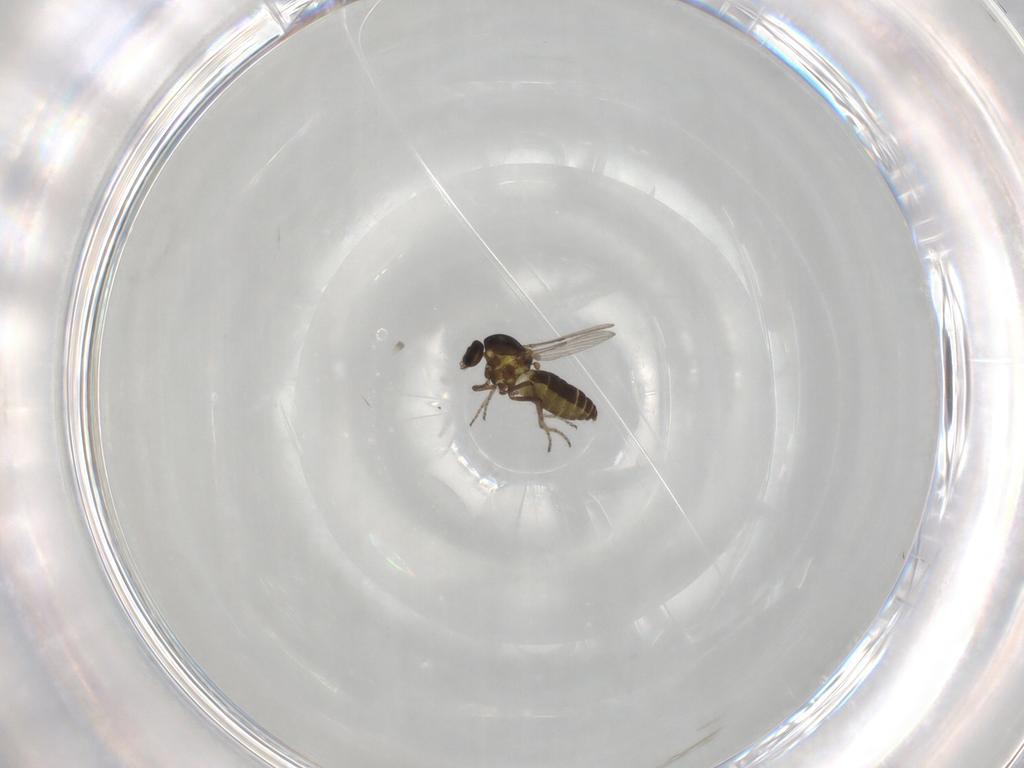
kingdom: Animalia
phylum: Arthropoda
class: Insecta
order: Diptera
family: Ceratopogonidae
